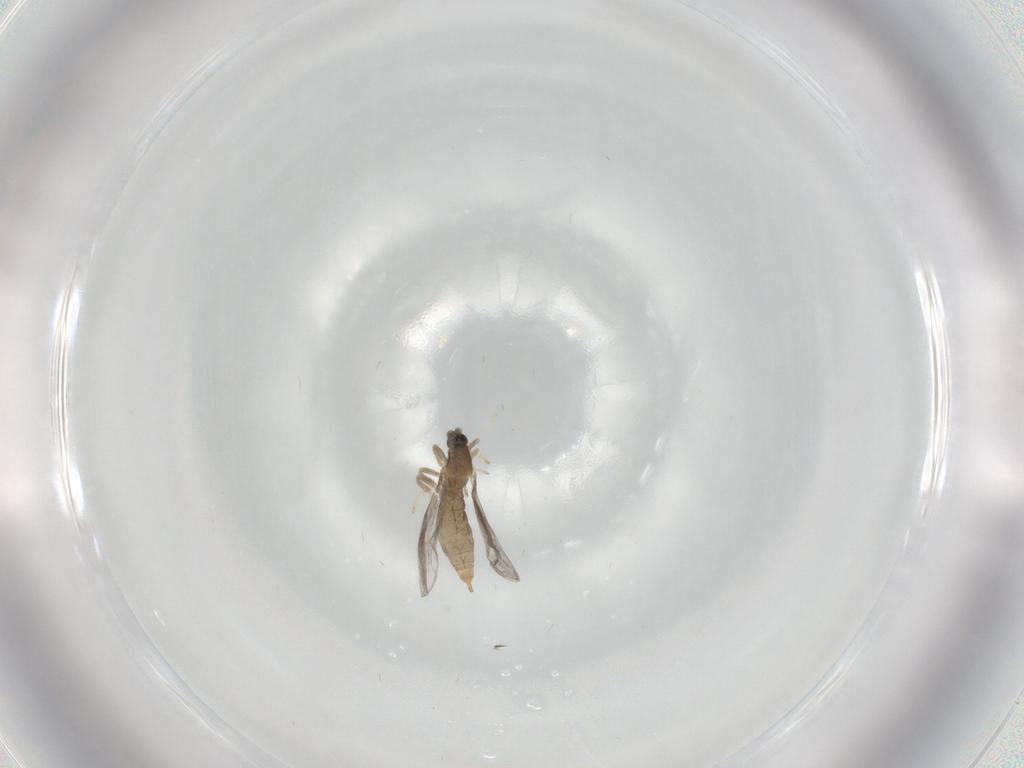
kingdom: Animalia
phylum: Arthropoda
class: Insecta
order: Diptera
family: Cecidomyiidae
